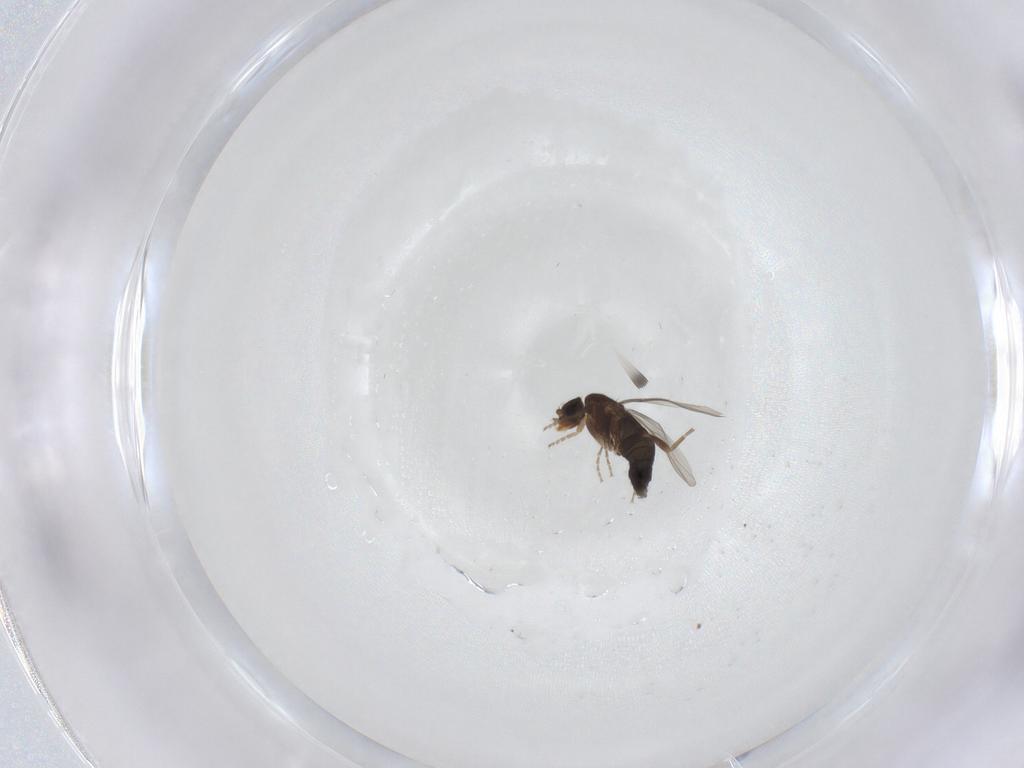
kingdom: Animalia
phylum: Arthropoda
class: Insecta
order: Diptera
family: Phoridae
